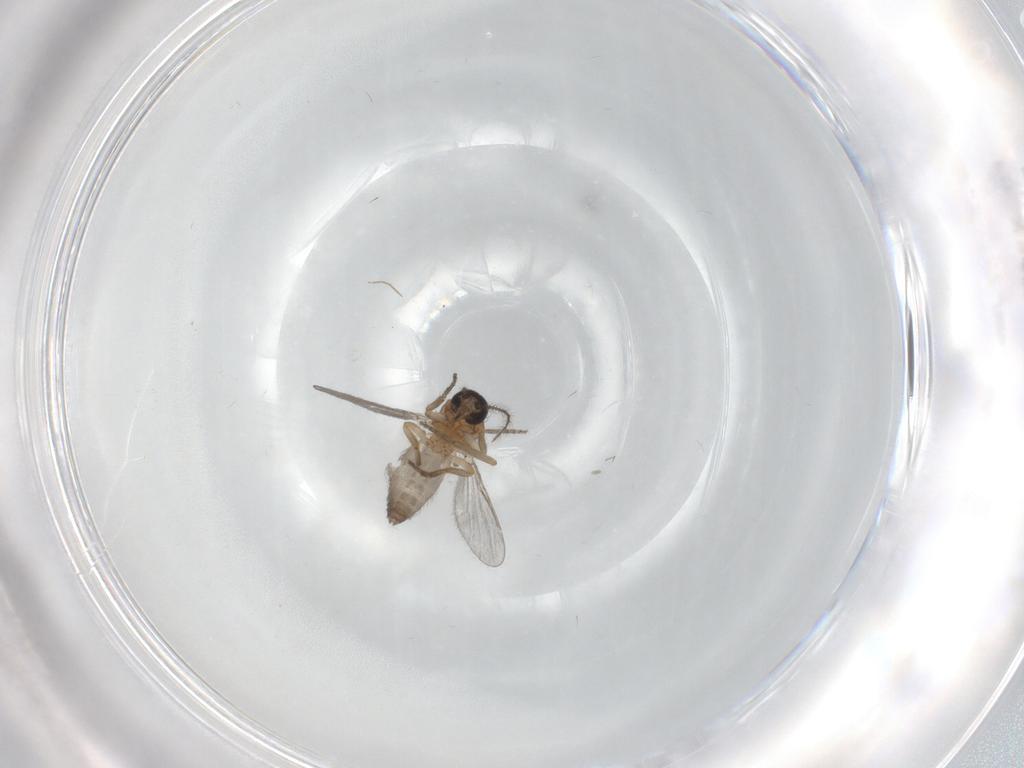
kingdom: Animalia
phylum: Arthropoda
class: Insecta
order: Diptera
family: Ceratopogonidae
